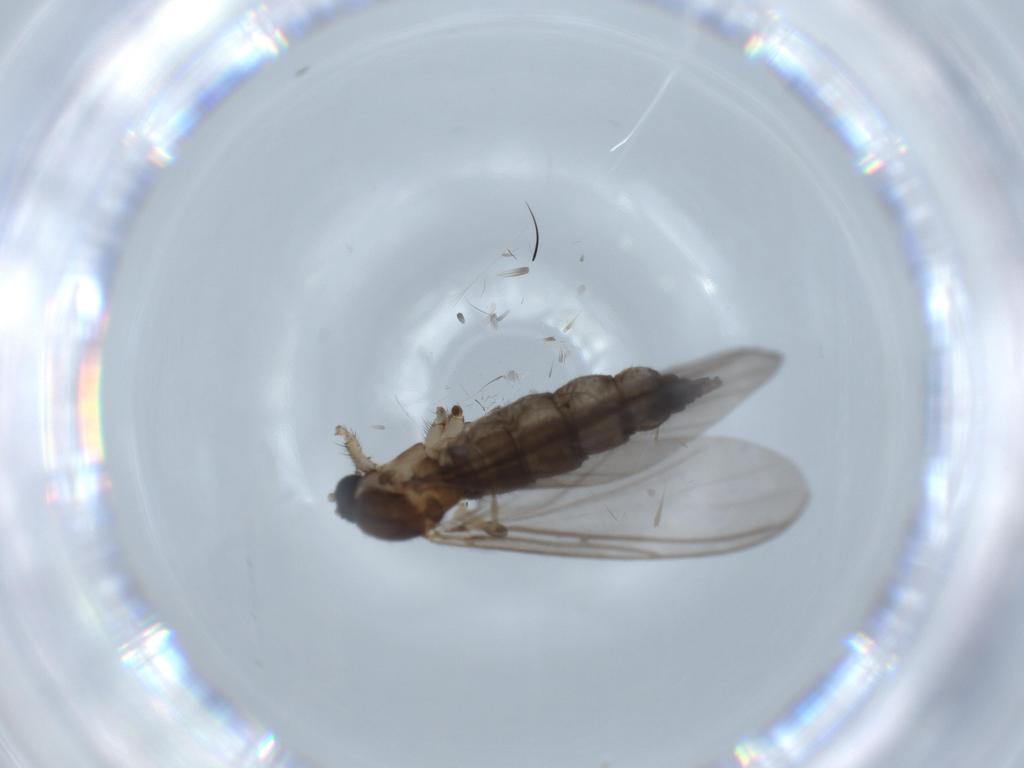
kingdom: Animalia
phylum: Arthropoda
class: Insecta
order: Diptera
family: Sciaridae
